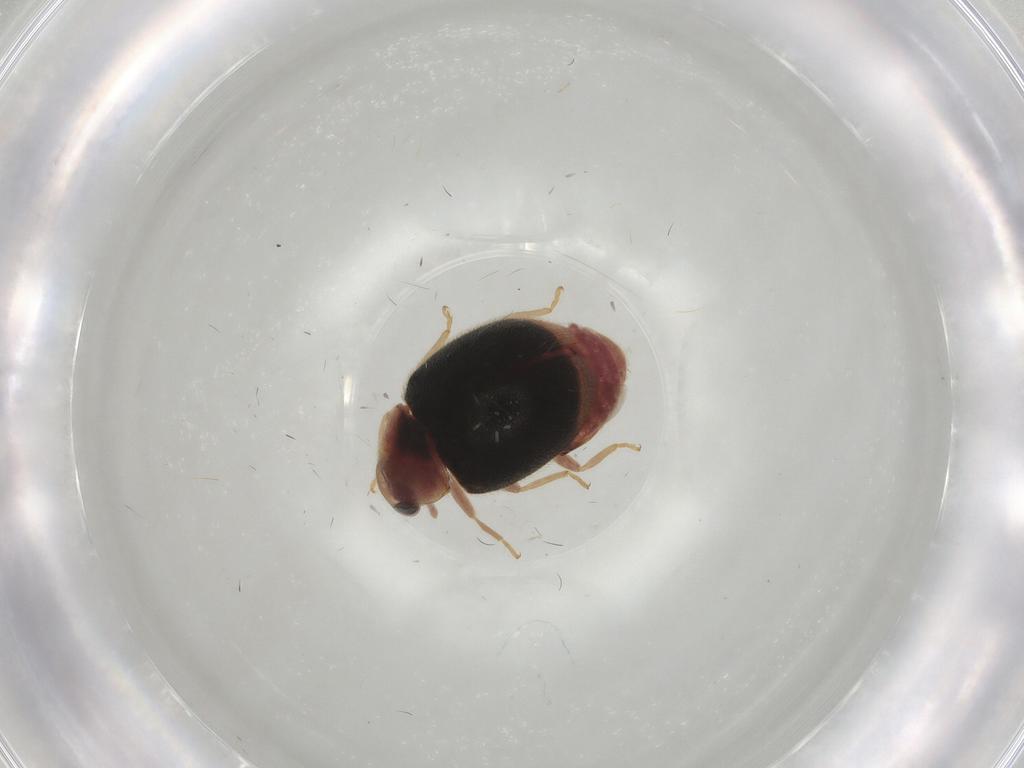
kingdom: Animalia
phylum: Arthropoda
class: Insecta
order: Coleoptera
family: Coccinellidae
